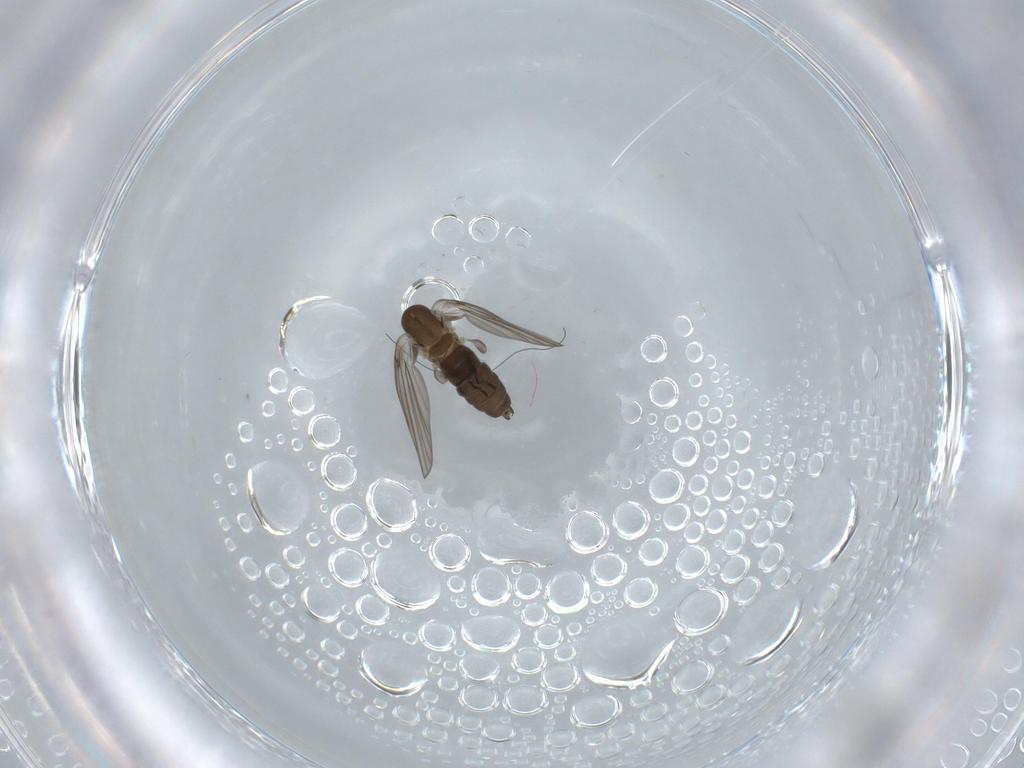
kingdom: Animalia
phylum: Arthropoda
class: Insecta
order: Diptera
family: Psychodidae
